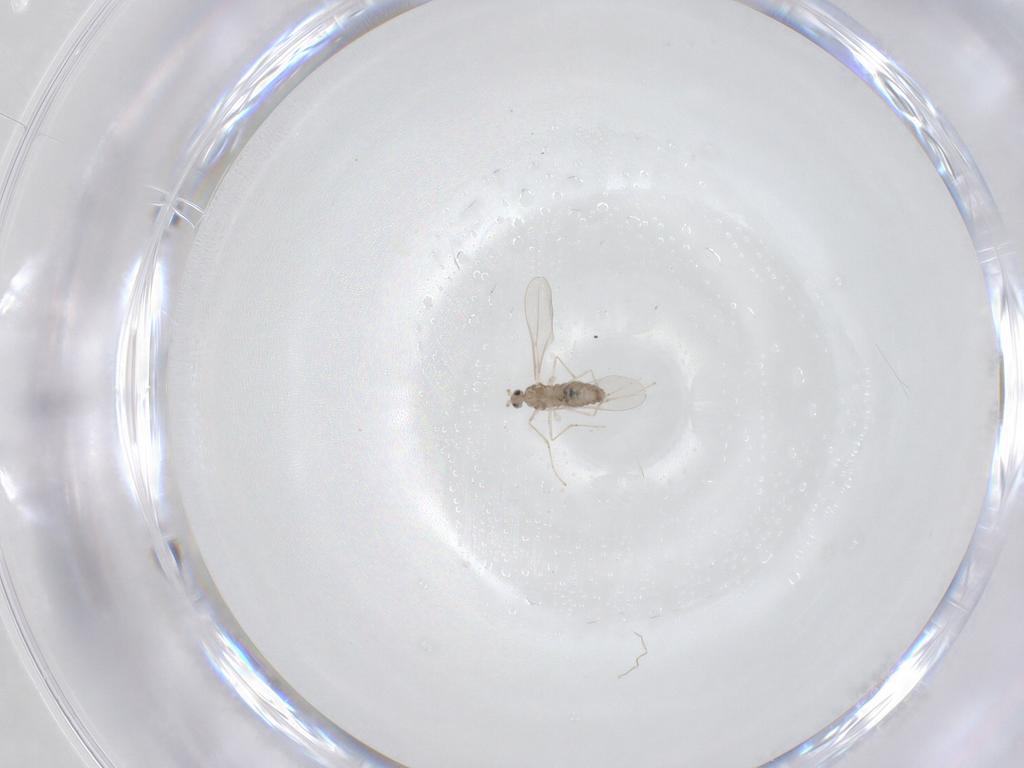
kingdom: Animalia
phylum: Arthropoda
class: Insecta
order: Diptera
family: Cecidomyiidae
